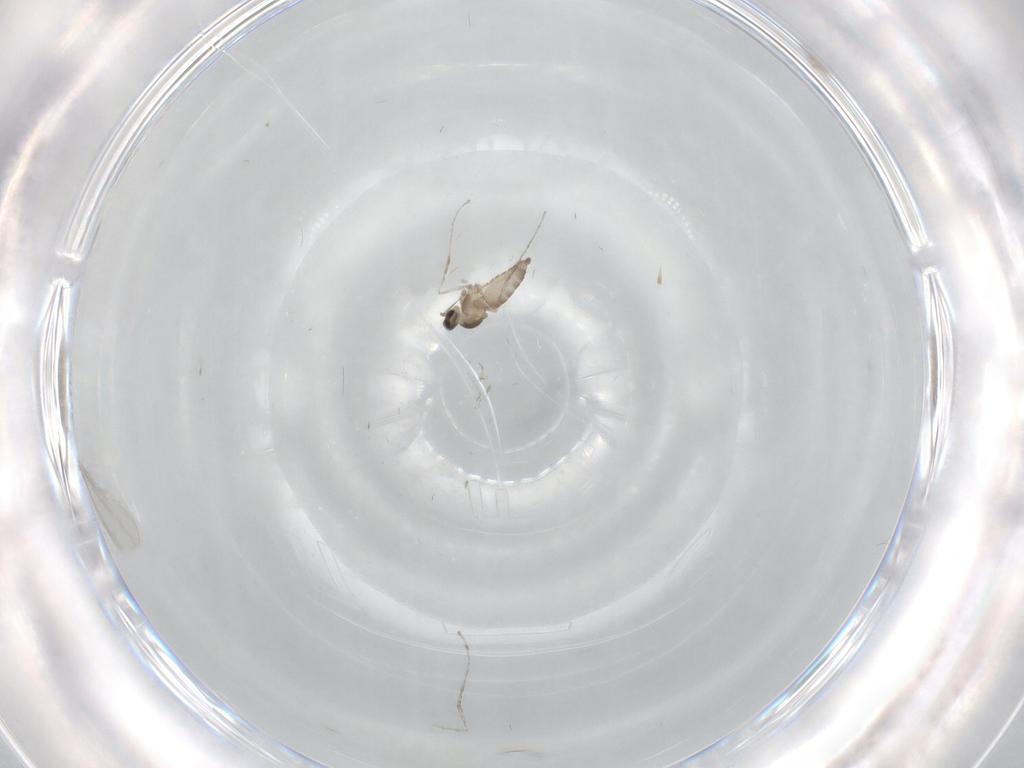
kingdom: Animalia
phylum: Arthropoda
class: Insecta
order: Diptera
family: Cecidomyiidae
